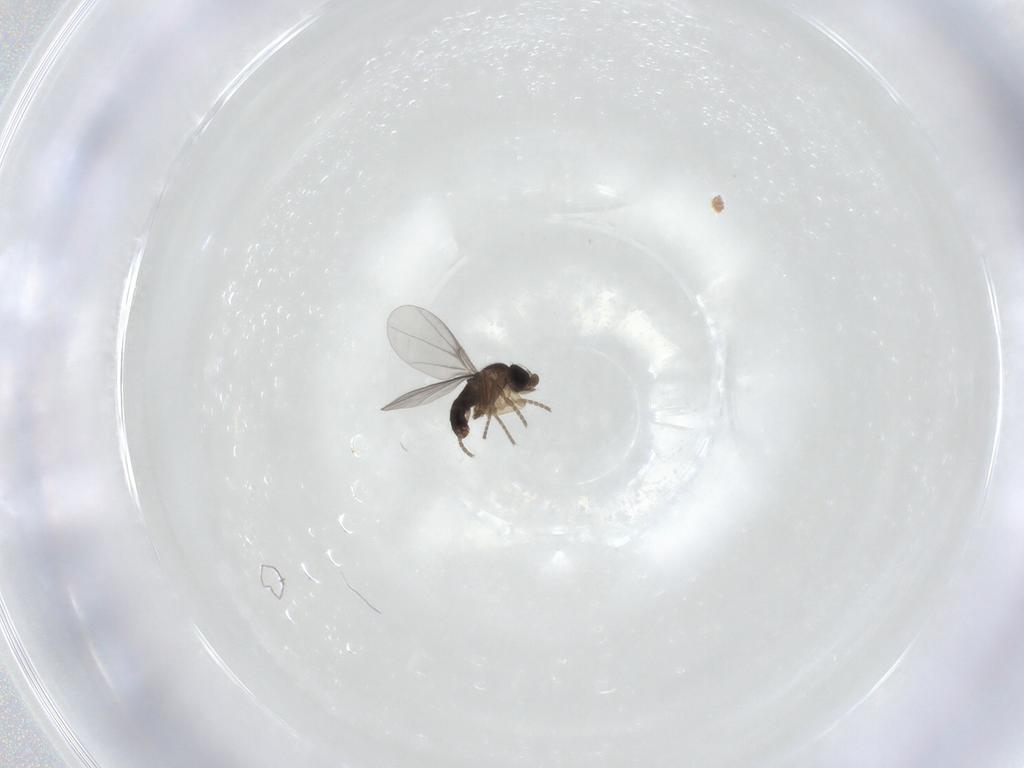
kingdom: Animalia
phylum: Arthropoda
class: Insecta
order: Diptera
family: Phoridae
